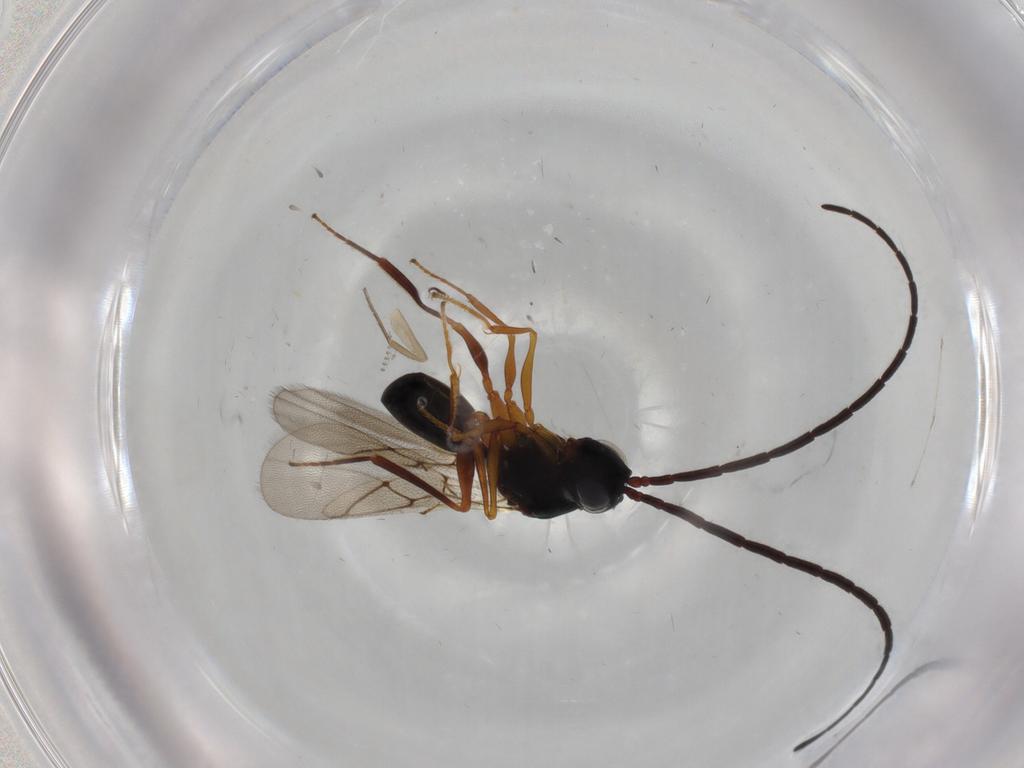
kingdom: Animalia
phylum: Arthropoda
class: Insecta
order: Hymenoptera
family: Figitidae
